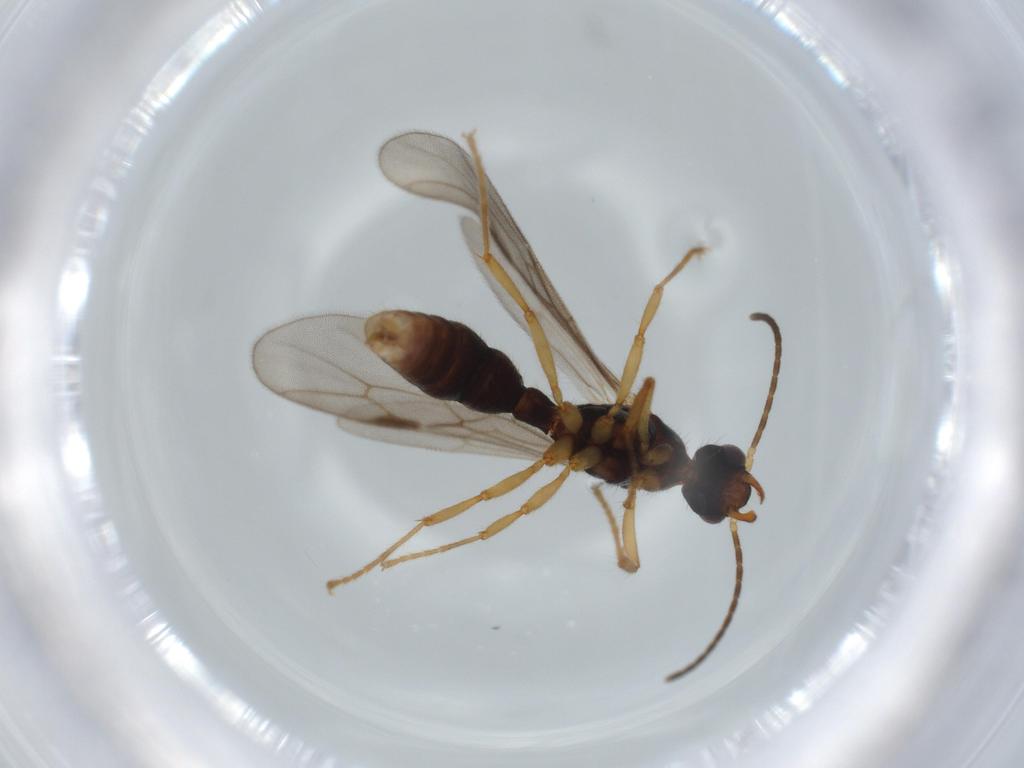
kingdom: Animalia
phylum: Arthropoda
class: Insecta
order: Hymenoptera
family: Formicidae
